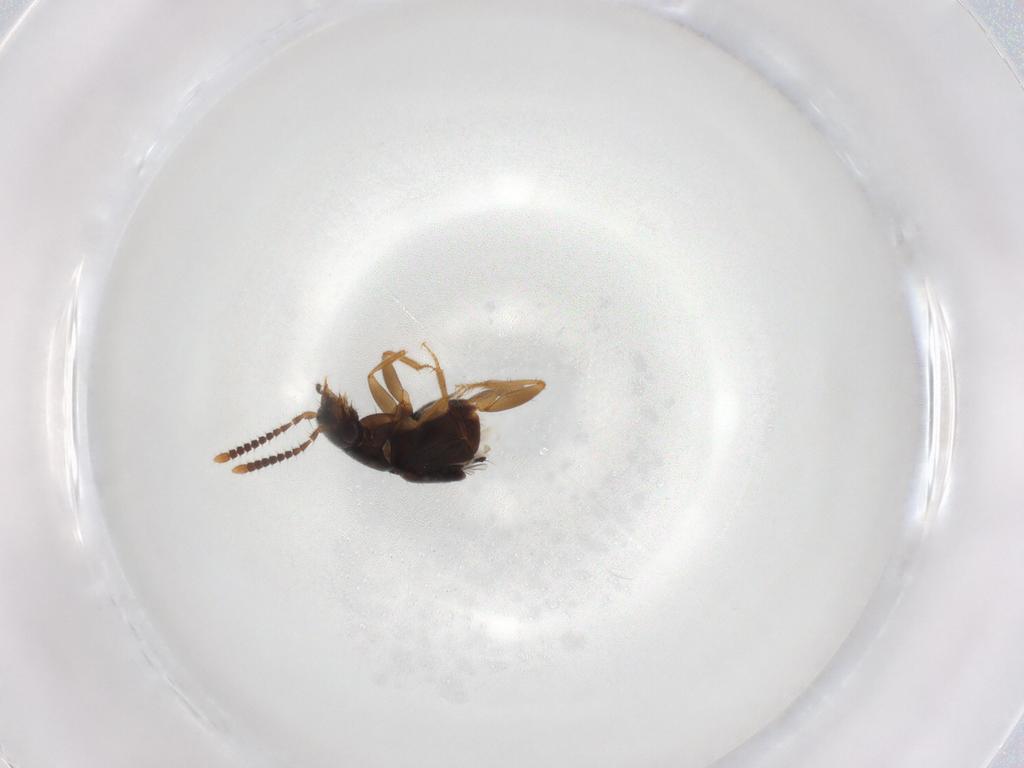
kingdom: Animalia
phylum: Arthropoda
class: Insecta
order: Coleoptera
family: Staphylinidae
